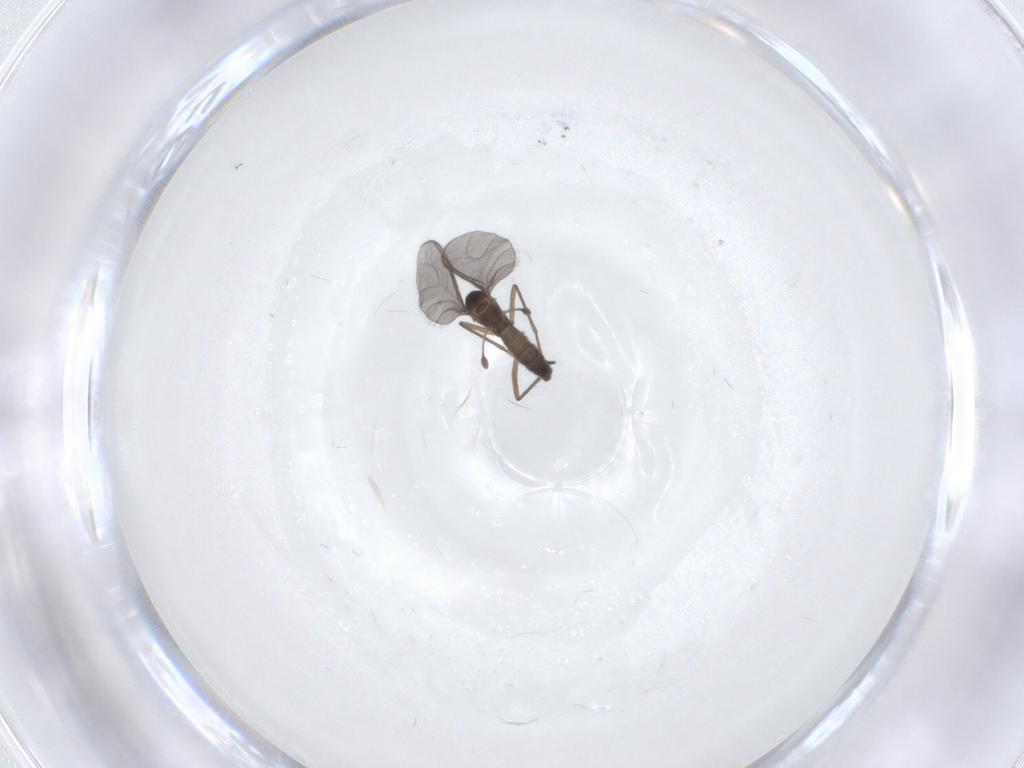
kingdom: Animalia
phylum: Arthropoda
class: Insecta
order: Diptera
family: Sciaridae
